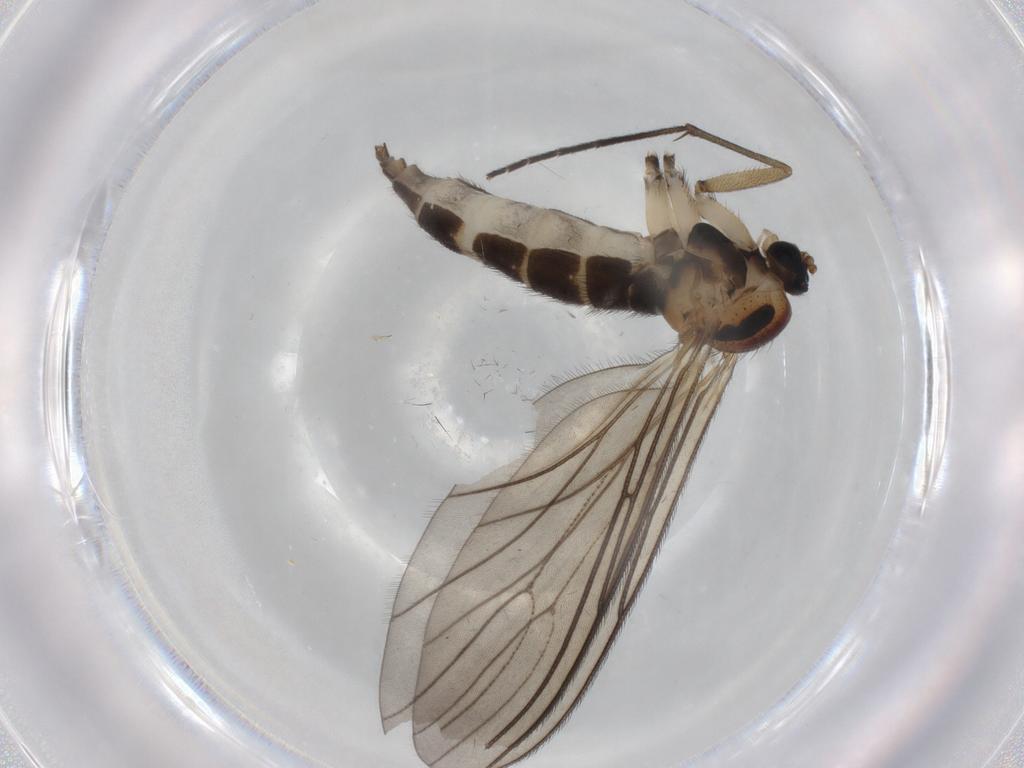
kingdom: Animalia
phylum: Arthropoda
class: Insecta
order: Diptera
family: Sciaridae
